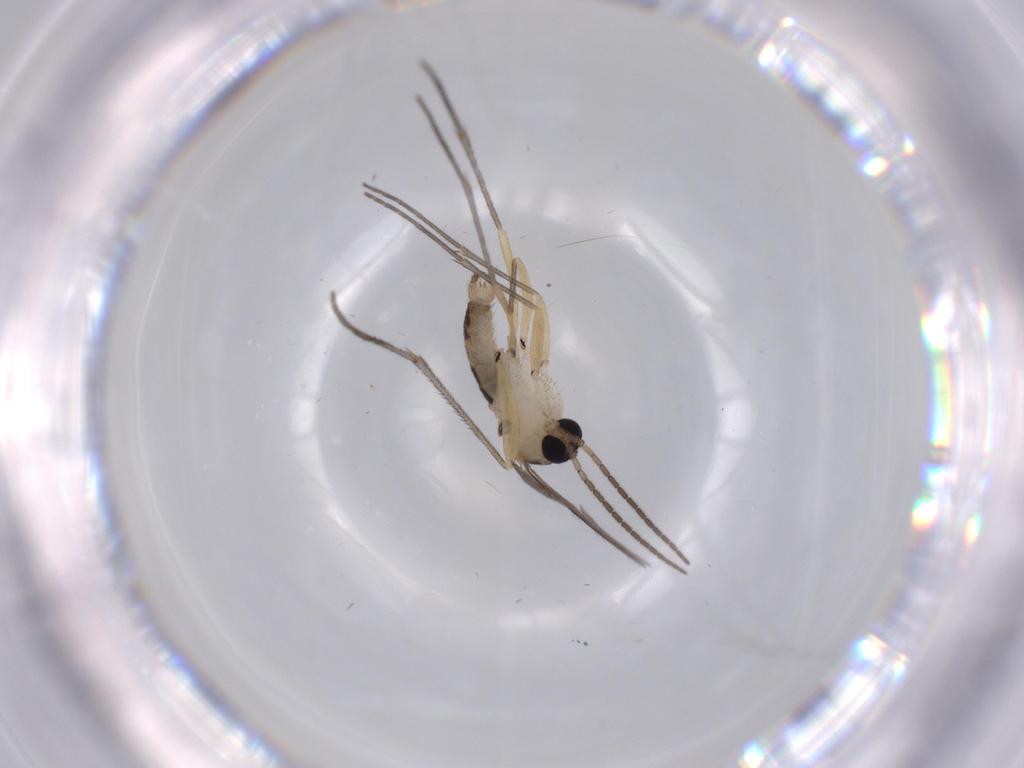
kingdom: Animalia
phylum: Arthropoda
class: Insecta
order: Diptera
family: Sciaridae
